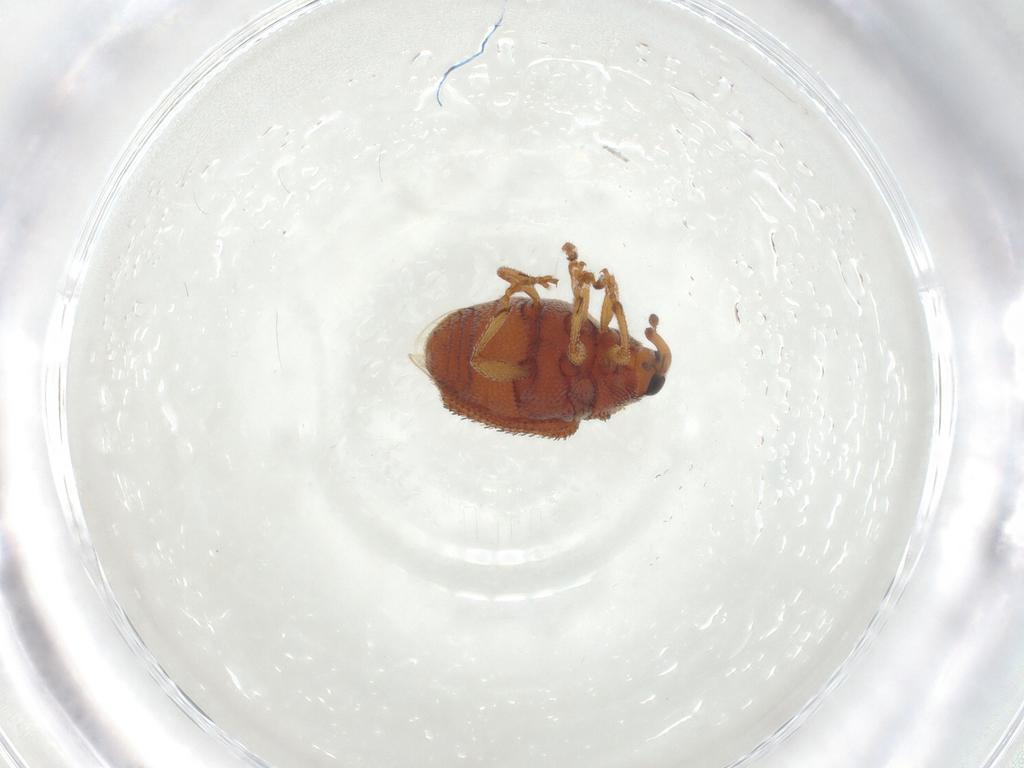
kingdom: Animalia
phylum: Arthropoda
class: Insecta
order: Coleoptera
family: Curculionidae
